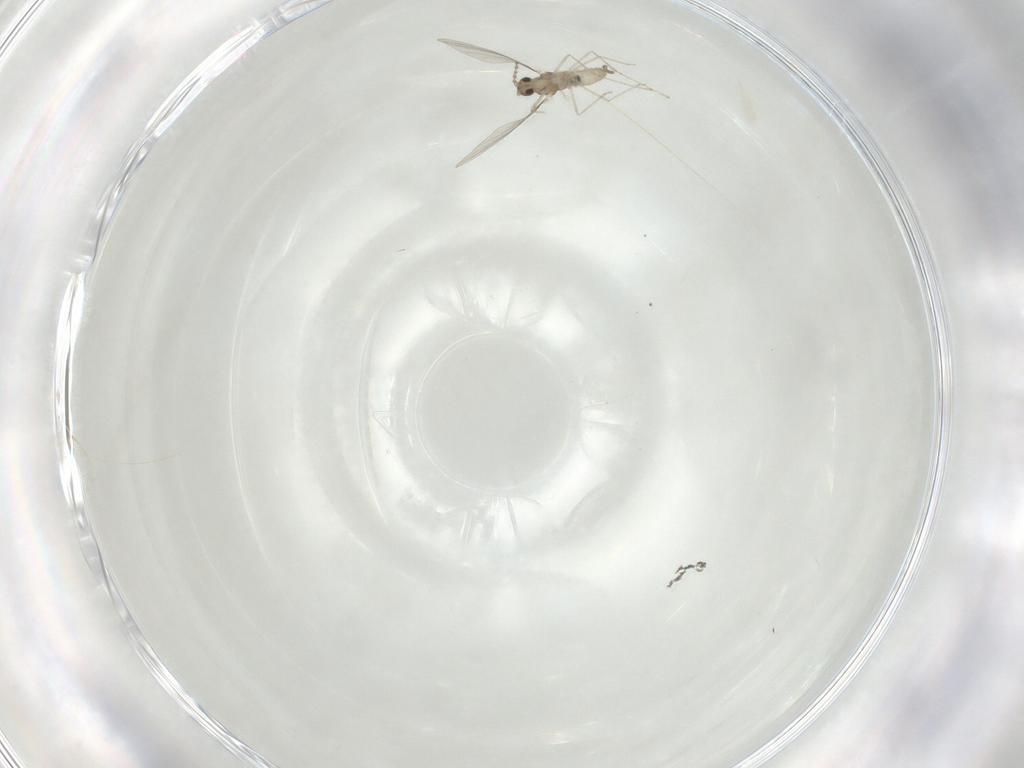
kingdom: Animalia
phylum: Arthropoda
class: Insecta
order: Diptera
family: Cecidomyiidae
